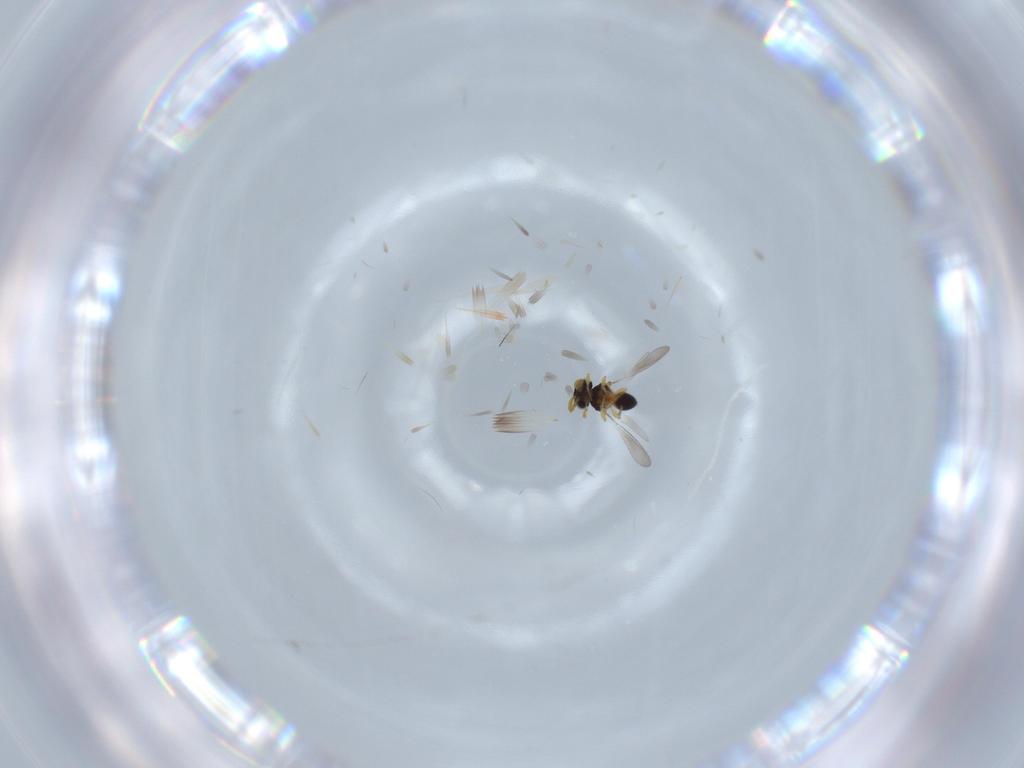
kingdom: Animalia
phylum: Arthropoda
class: Insecta
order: Hymenoptera
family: Platygastridae
